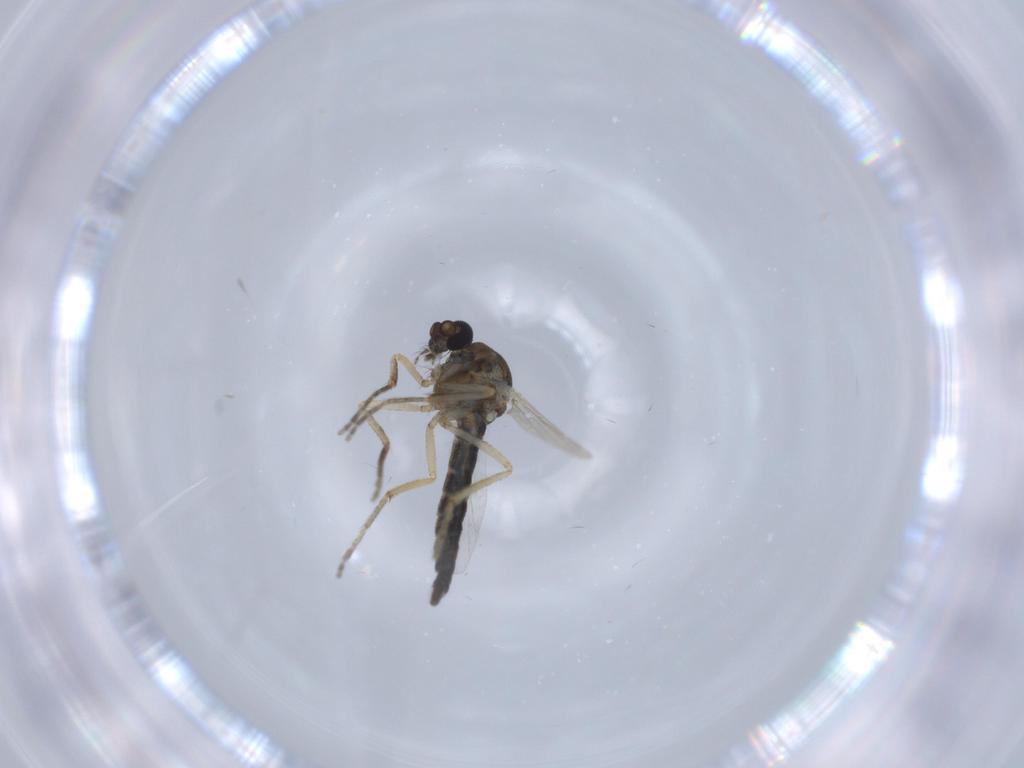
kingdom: Animalia
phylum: Arthropoda
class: Insecta
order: Diptera
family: Ceratopogonidae
